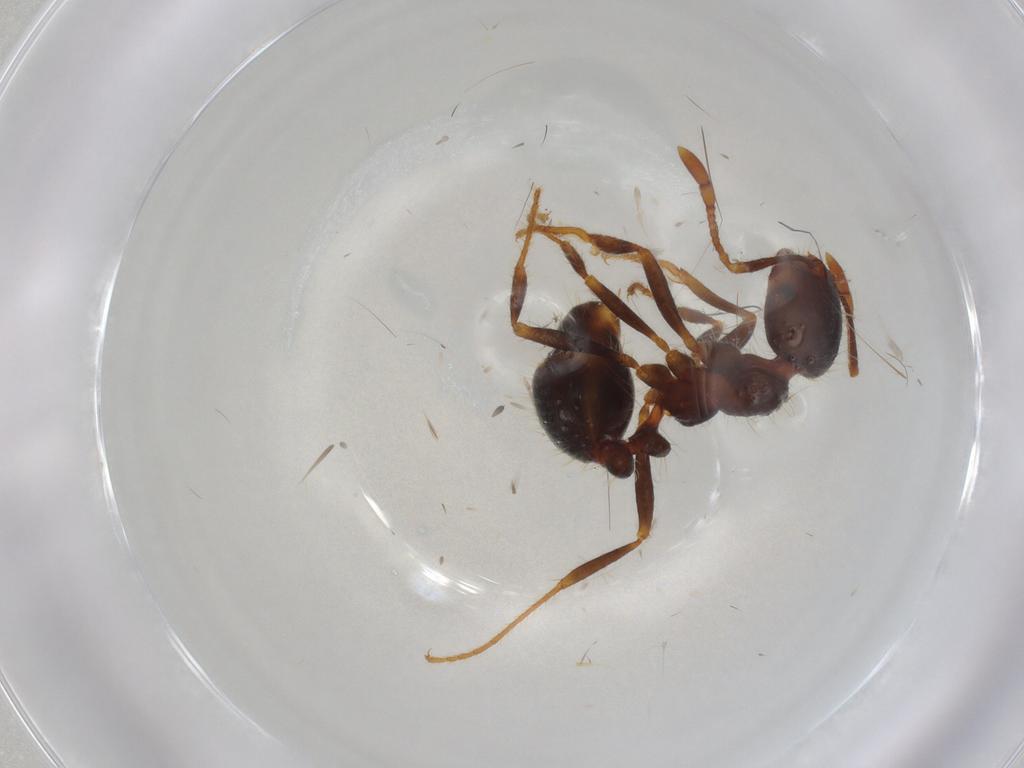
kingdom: Animalia
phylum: Arthropoda
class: Insecta
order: Hymenoptera
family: Formicidae
